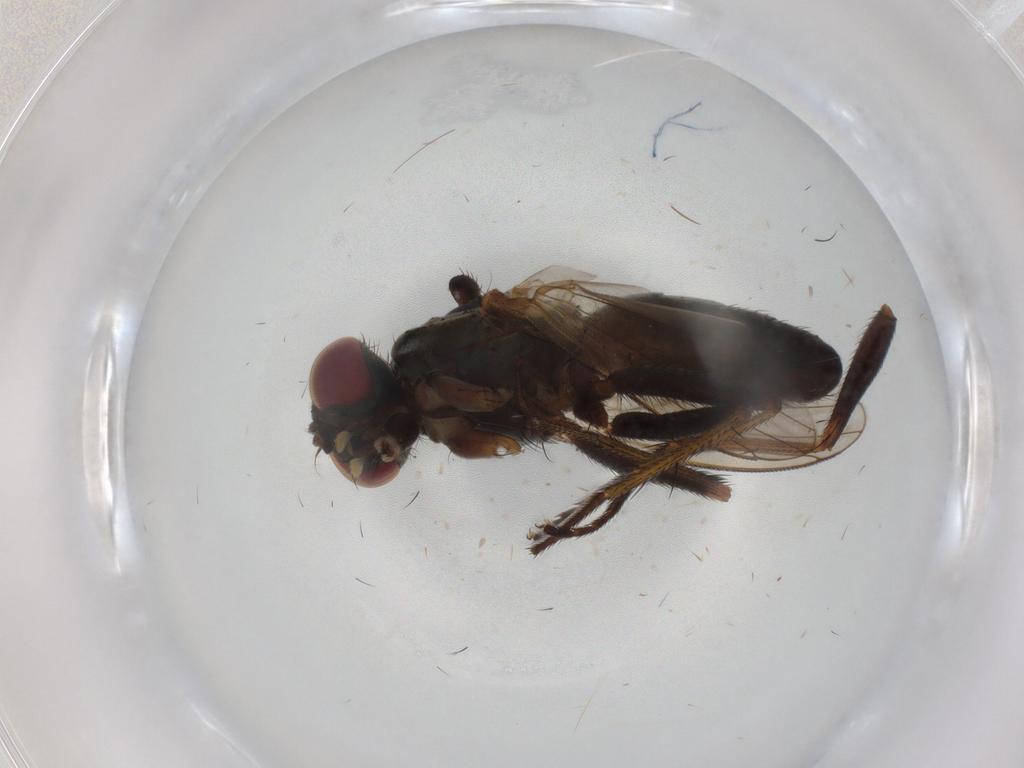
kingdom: Animalia
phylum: Arthropoda
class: Insecta
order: Diptera
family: Muscidae
